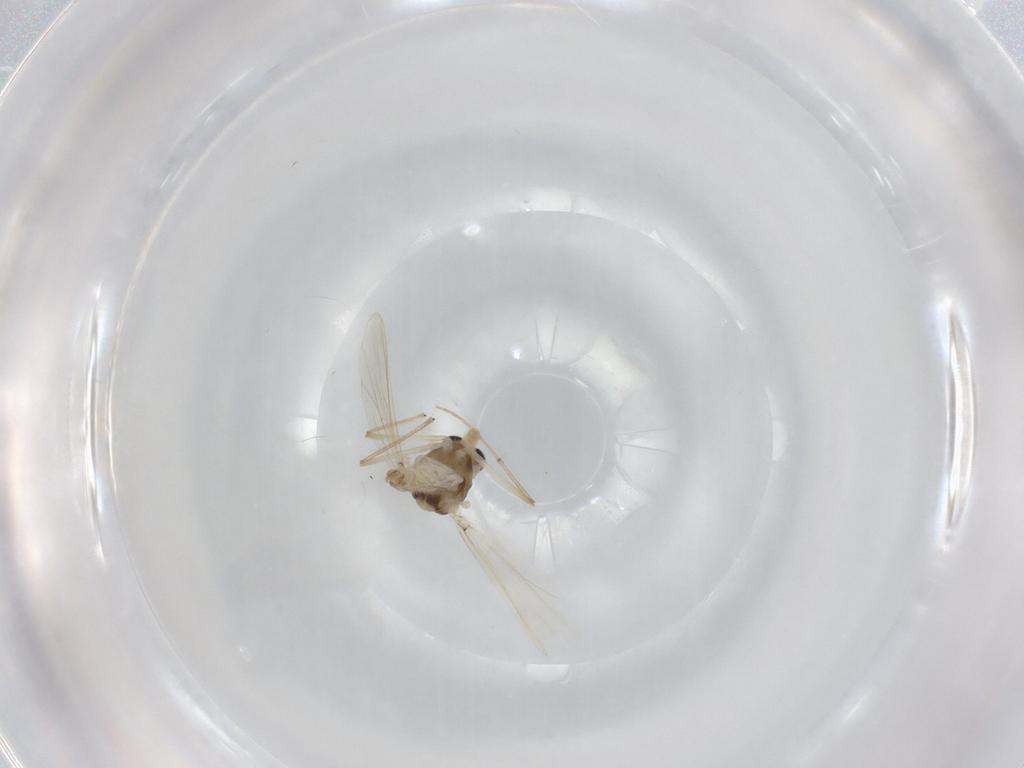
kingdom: Animalia
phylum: Arthropoda
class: Insecta
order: Diptera
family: Chironomidae
